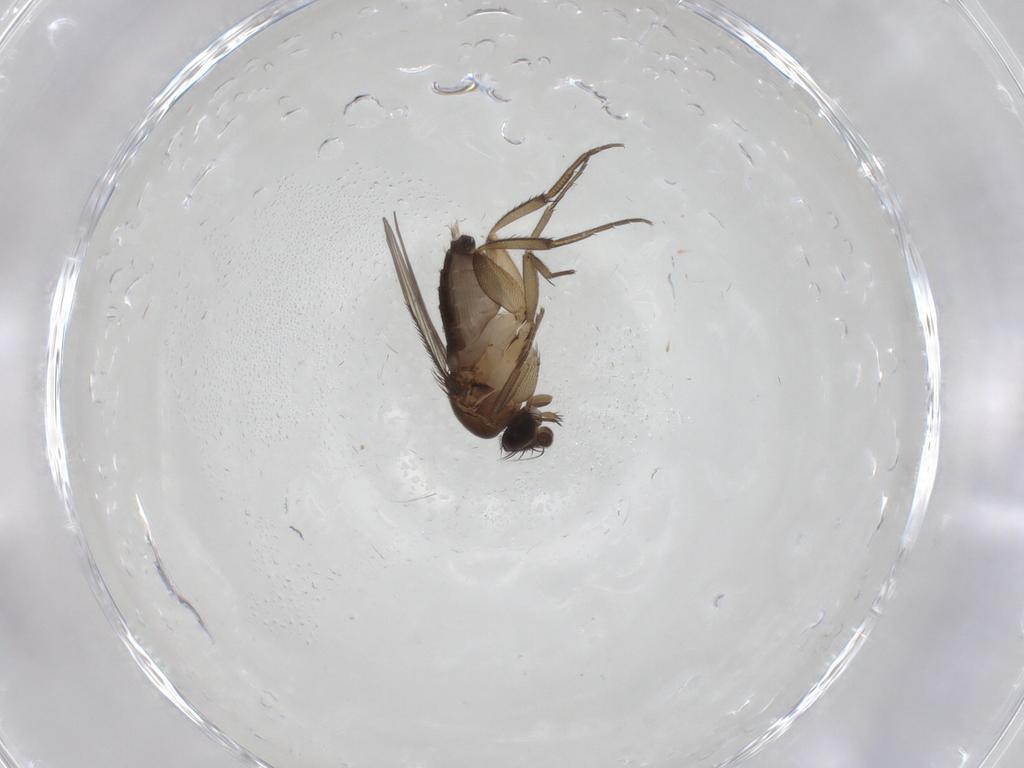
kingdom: Animalia
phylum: Arthropoda
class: Insecta
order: Diptera
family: Phoridae
